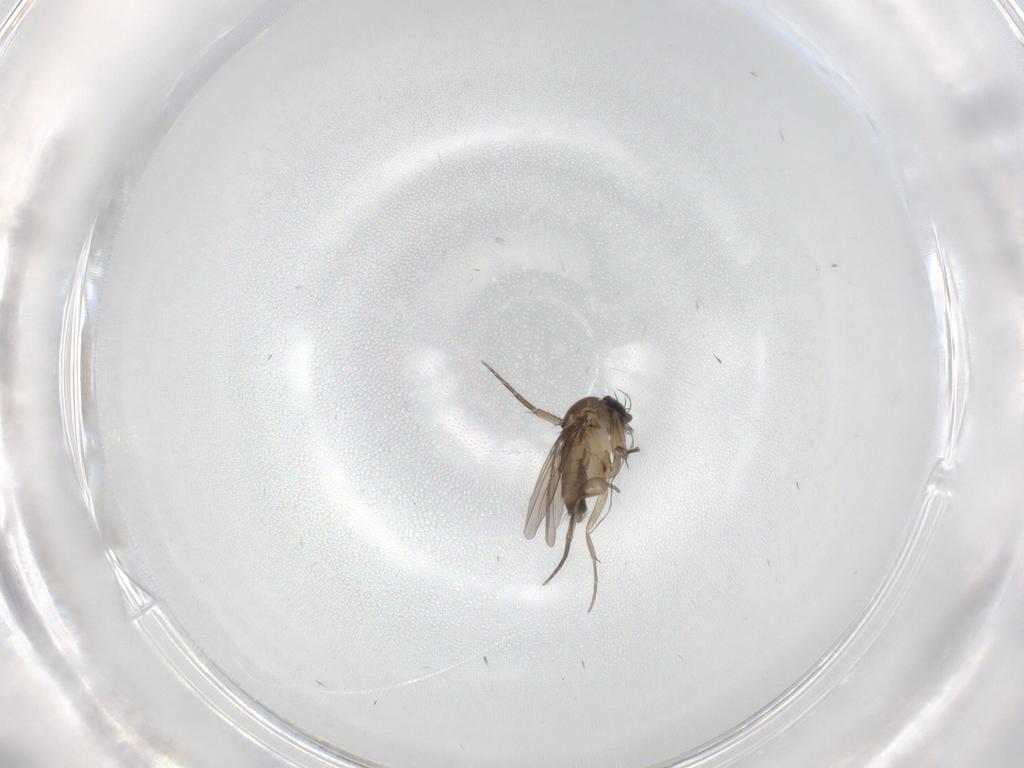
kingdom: Animalia
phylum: Arthropoda
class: Insecta
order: Diptera
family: Phoridae
